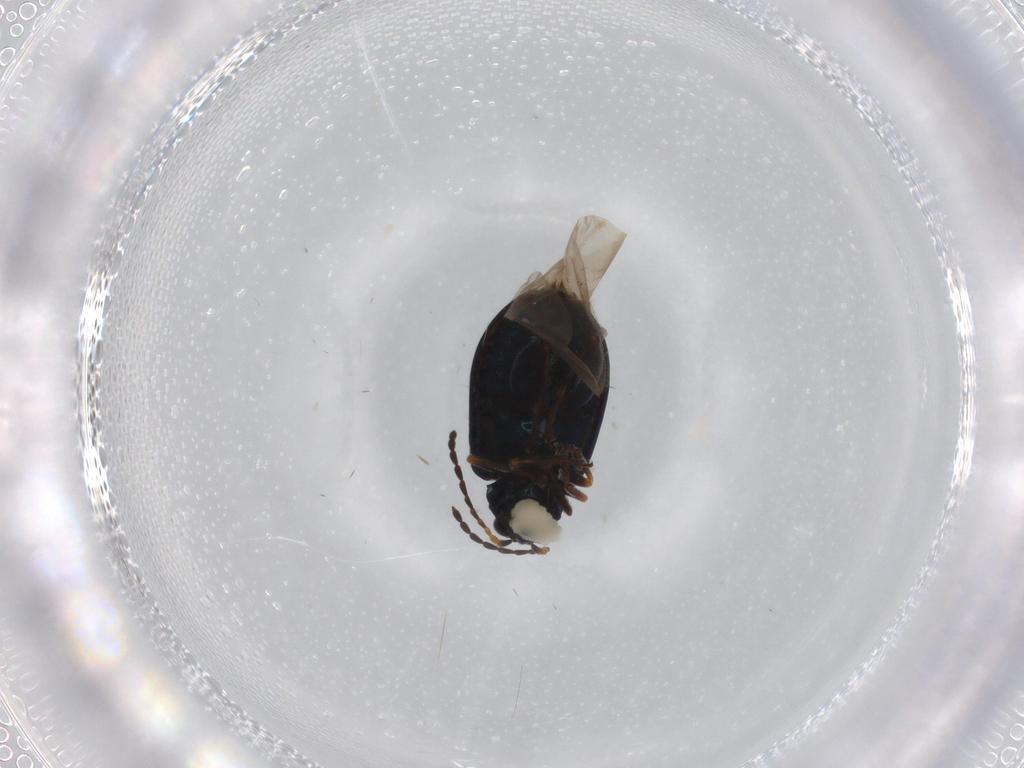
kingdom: Animalia
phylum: Arthropoda
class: Insecta
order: Coleoptera
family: Chrysomelidae
